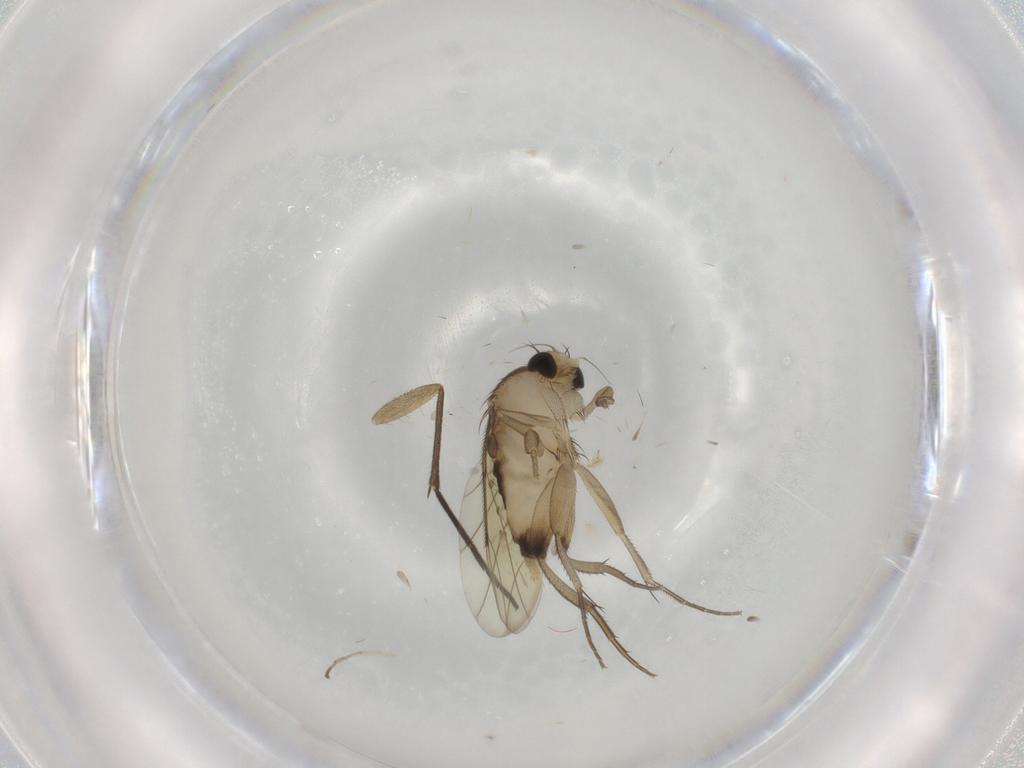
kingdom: Animalia
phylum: Arthropoda
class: Insecta
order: Diptera
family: Phoridae
